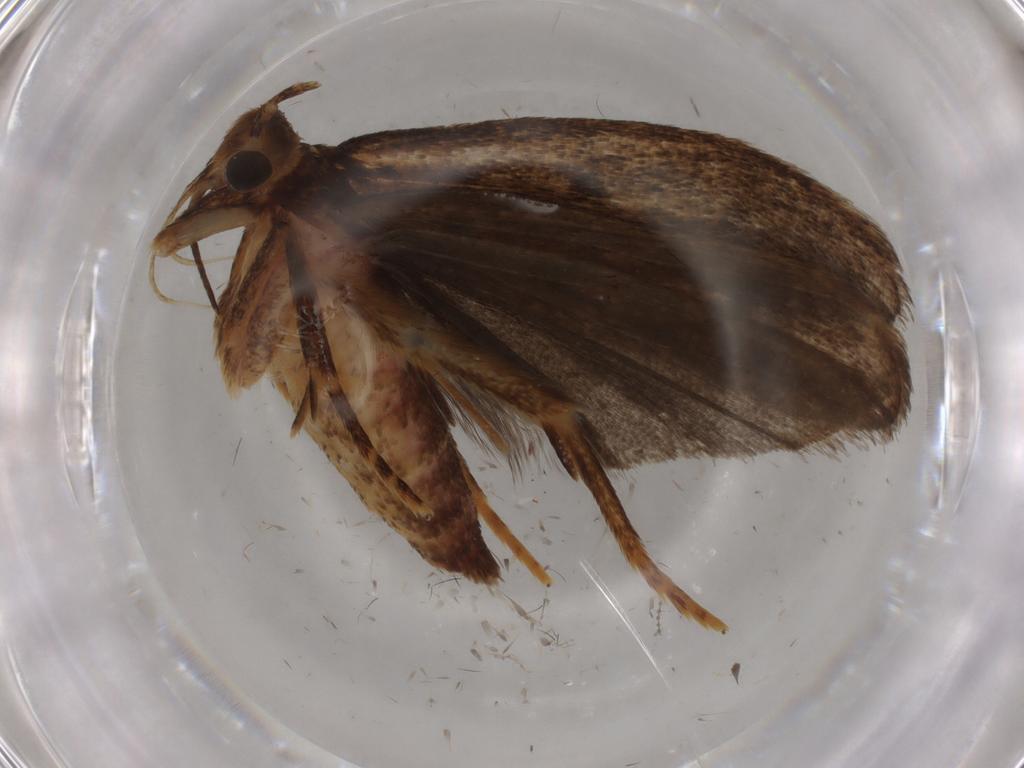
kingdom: Animalia
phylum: Arthropoda
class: Insecta
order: Lepidoptera
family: Autostichidae
